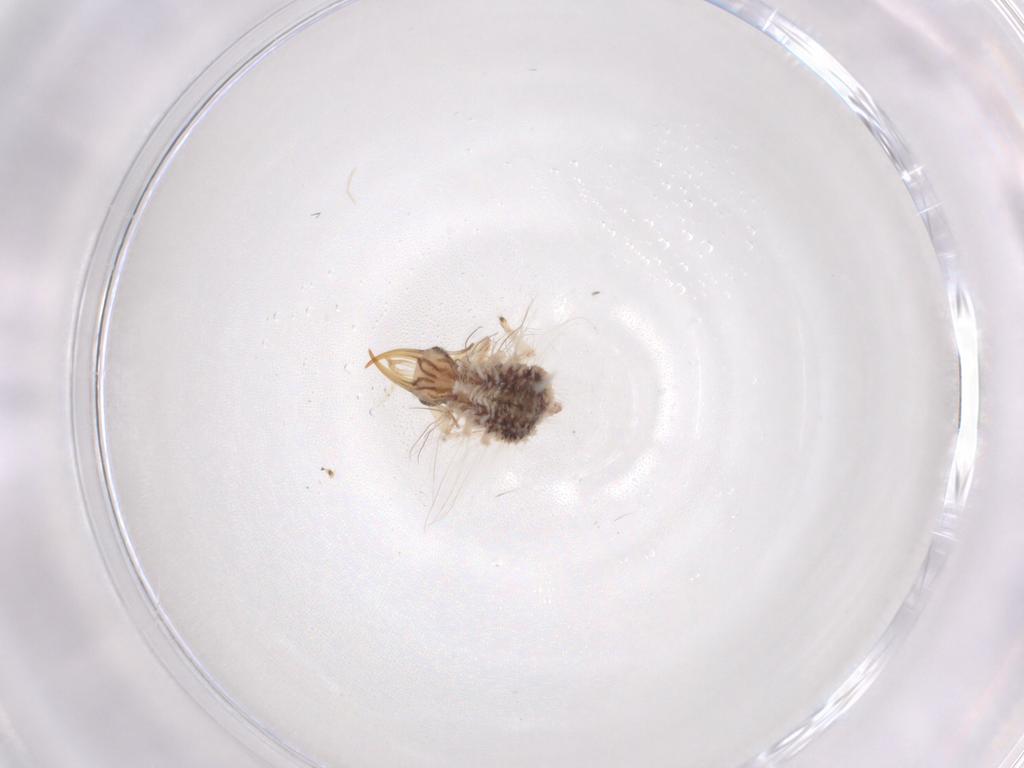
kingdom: Animalia
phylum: Arthropoda
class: Insecta
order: Neuroptera
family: Chrysopidae
